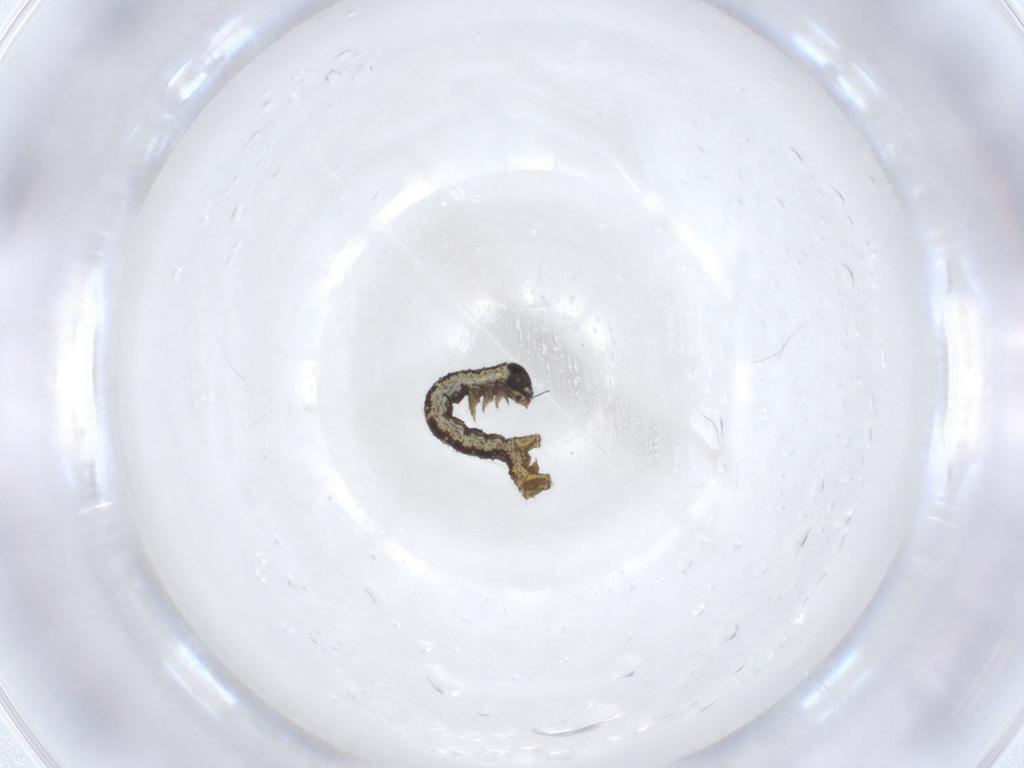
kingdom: Animalia
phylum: Arthropoda
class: Insecta
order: Lepidoptera
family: Geometridae
